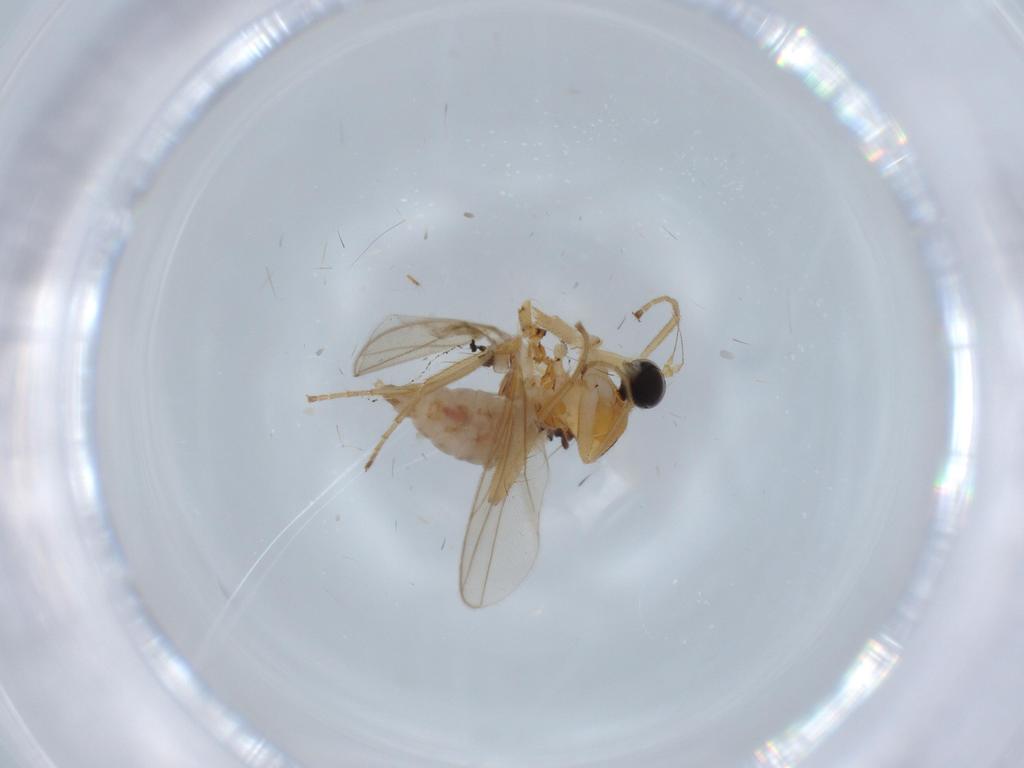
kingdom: Animalia
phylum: Arthropoda
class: Insecta
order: Diptera
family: Hybotidae
